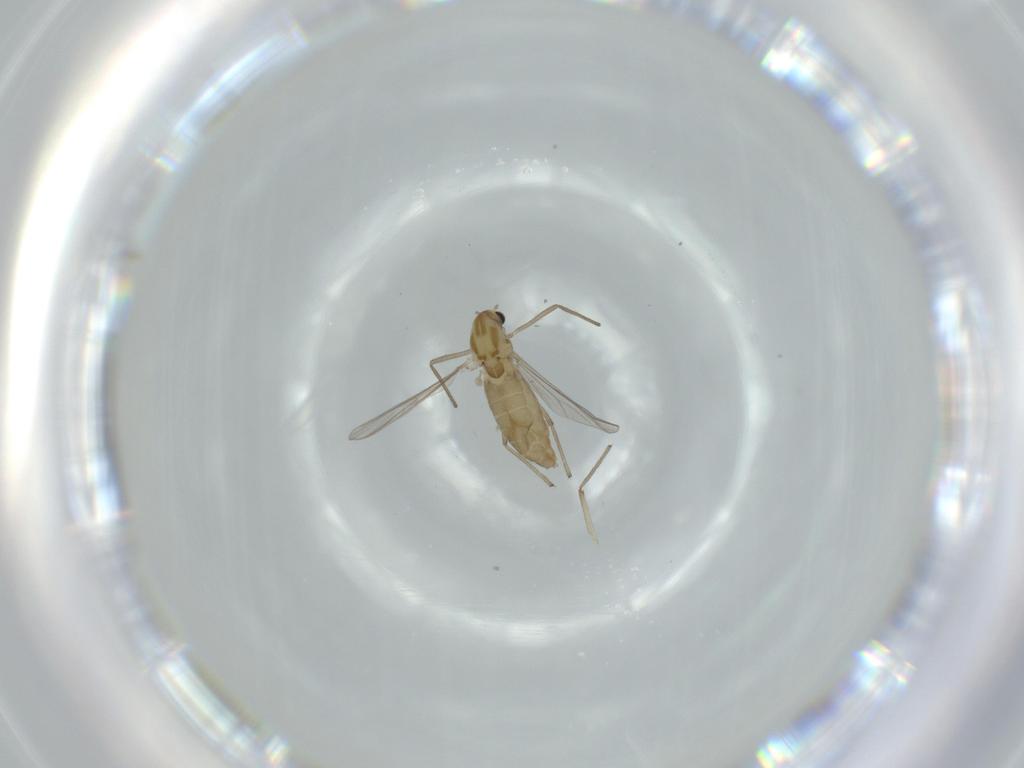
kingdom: Animalia
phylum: Arthropoda
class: Insecta
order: Diptera
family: Chironomidae
